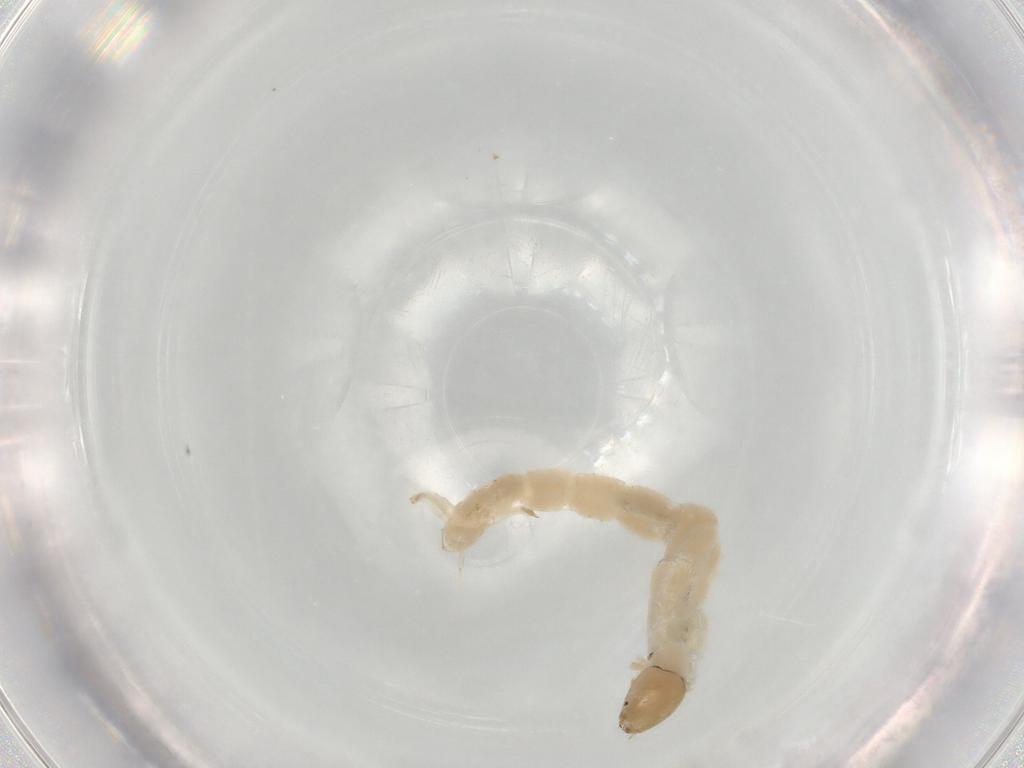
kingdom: Animalia
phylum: Arthropoda
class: Insecta
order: Diptera
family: Chironomidae
